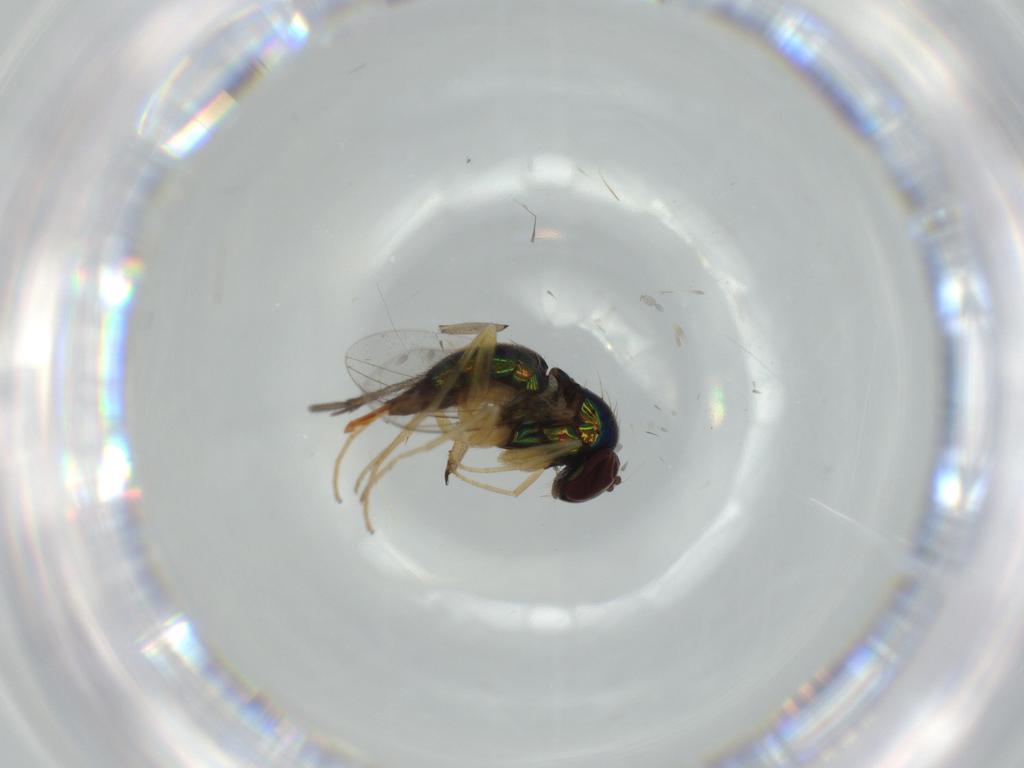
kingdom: Animalia
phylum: Arthropoda
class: Insecta
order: Diptera
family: Dolichopodidae
